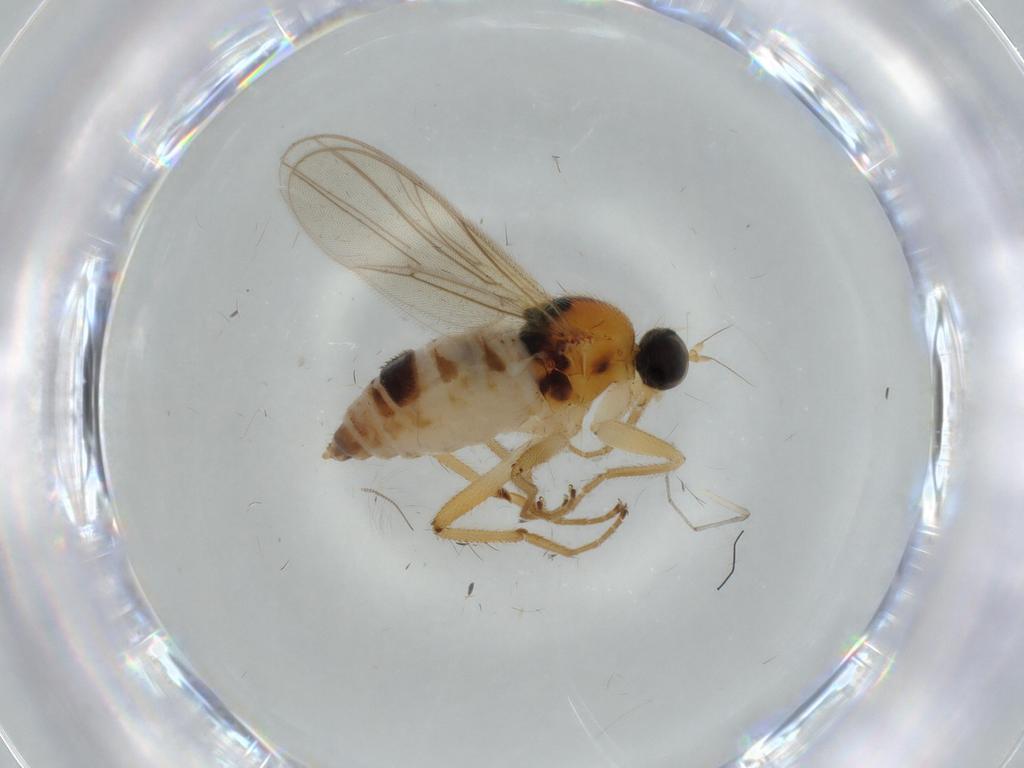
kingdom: Animalia
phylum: Arthropoda
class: Insecta
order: Diptera
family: Hybotidae
